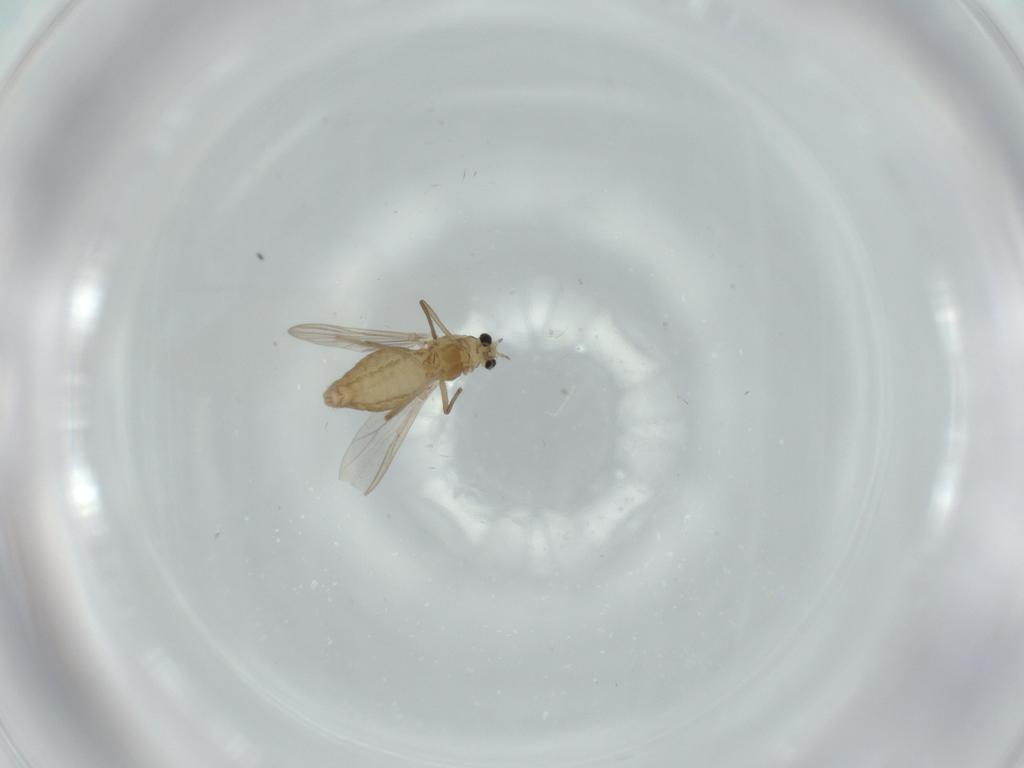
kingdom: Animalia
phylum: Arthropoda
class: Insecta
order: Diptera
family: Chironomidae
